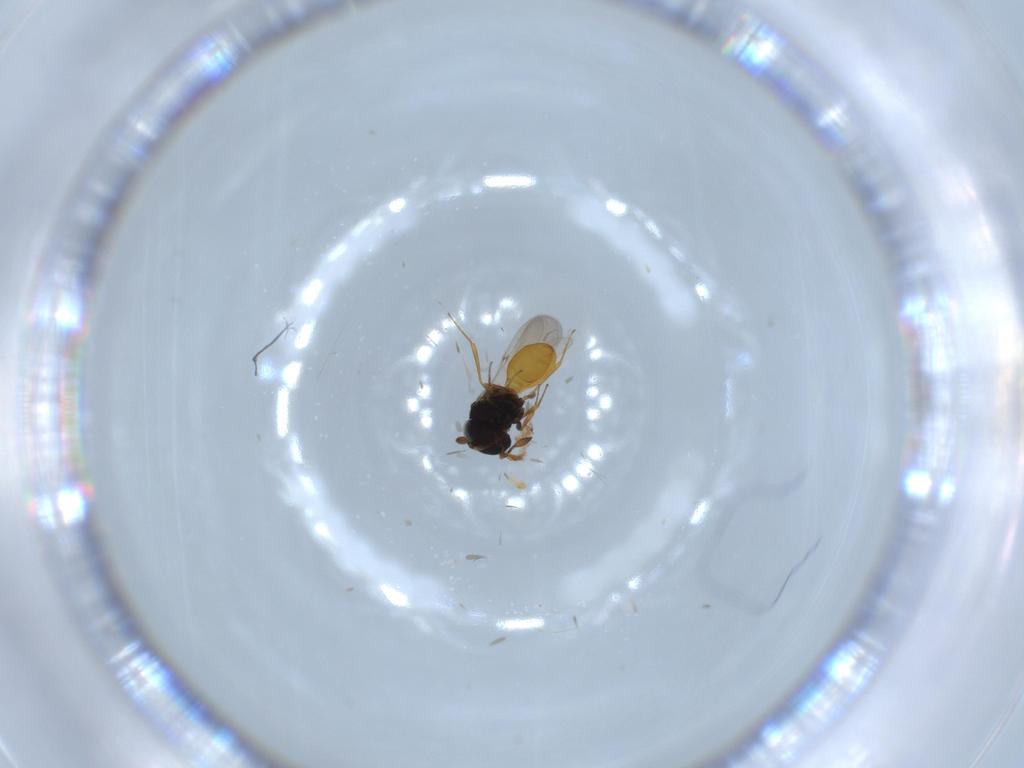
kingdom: Animalia
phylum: Arthropoda
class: Insecta
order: Hymenoptera
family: Scelionidae
